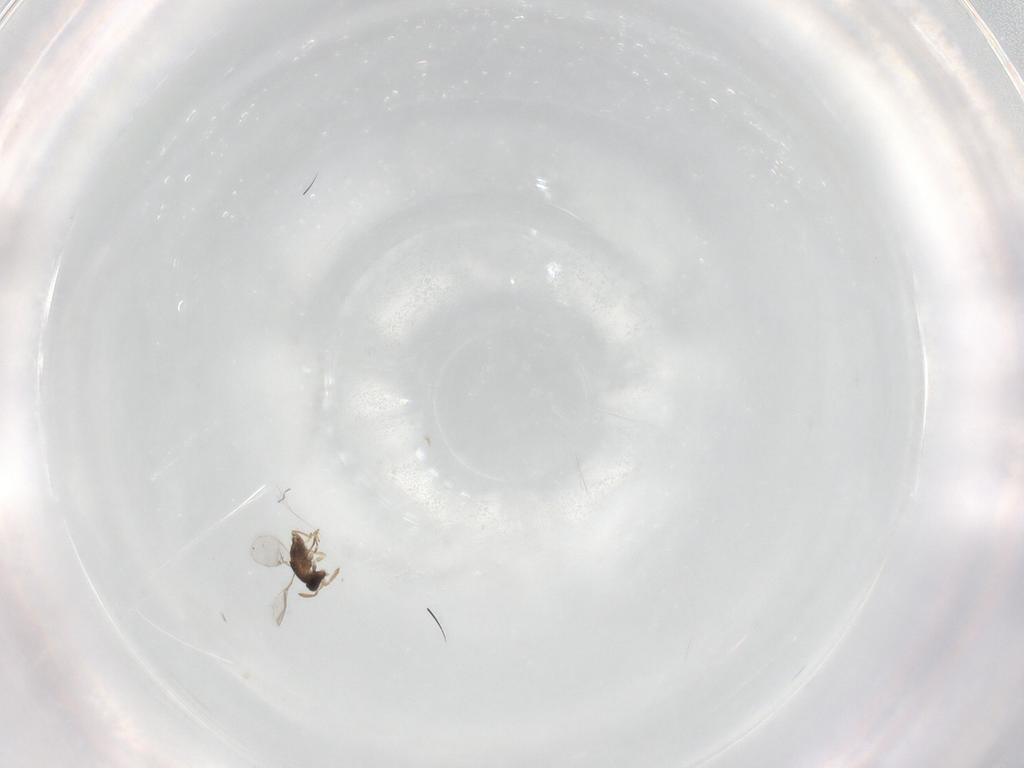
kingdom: Animalia
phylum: Arthropoda
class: Insecta
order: Hymenoptera
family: Encyrtidae
